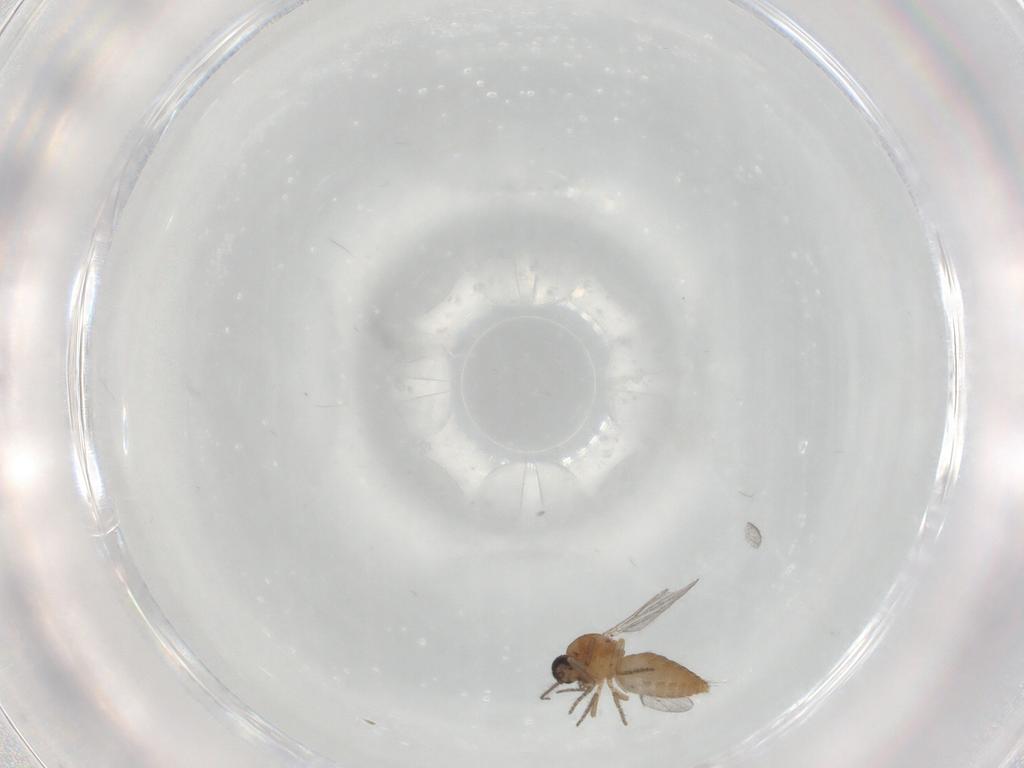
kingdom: Animalia
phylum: Arthropoda
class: Insecta
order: Diptera
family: Ceratopogonidae
